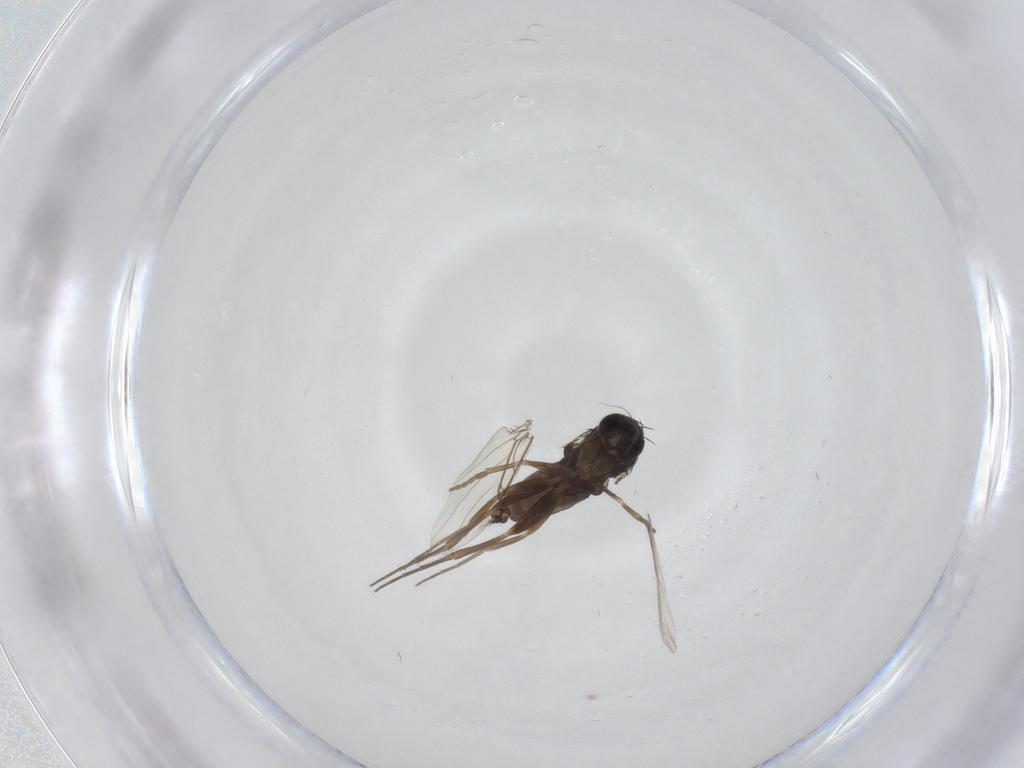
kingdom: Animalia
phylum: Arthropoda
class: Insecta
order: Diptera
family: Phoridae
